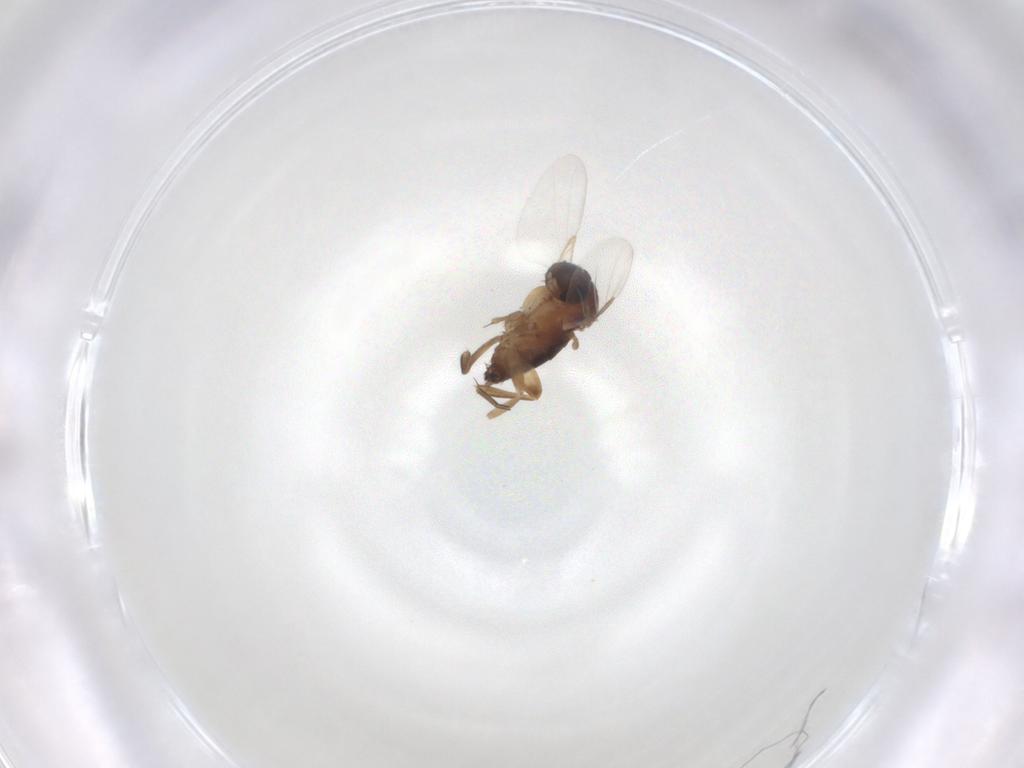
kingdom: Animalia
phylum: Arthropoda
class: Insecta
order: Diptera
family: Phoridae
